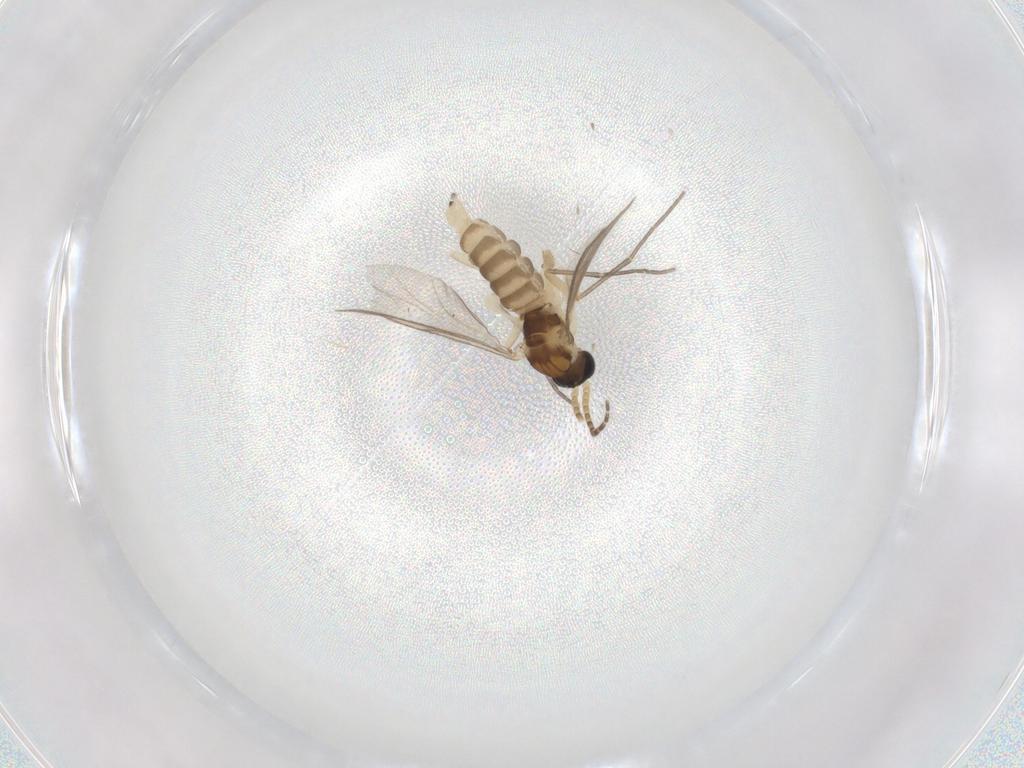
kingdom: Animalia
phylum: Arthropoda
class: Insecta
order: Diptera
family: Sciaridae
